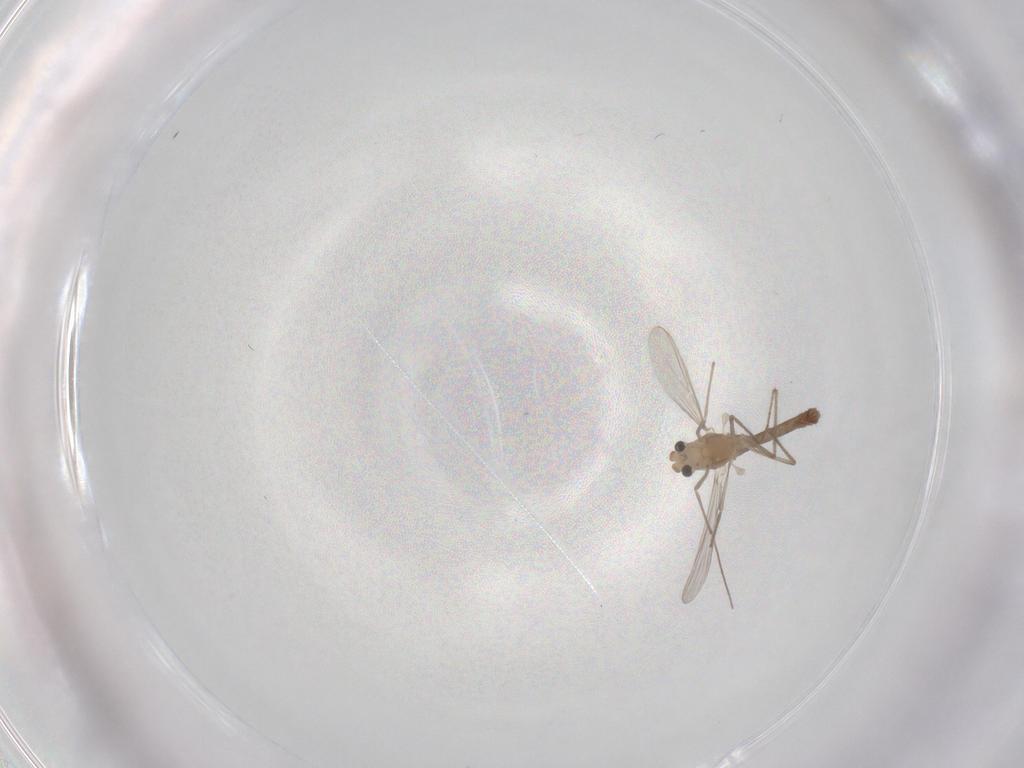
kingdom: Animalia
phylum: Arthropoda
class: Insecta
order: Diptera
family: Chironomidae
